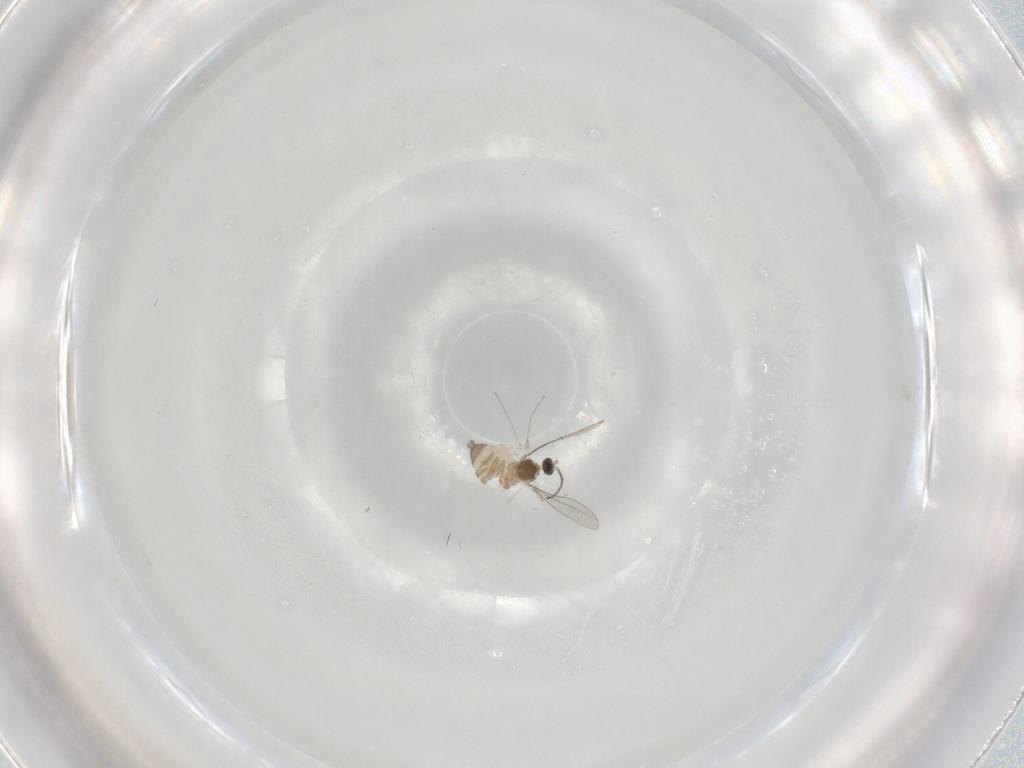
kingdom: Animalia
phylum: Arthropoda
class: Insecta
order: Diptera
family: Cecidomyiidae
